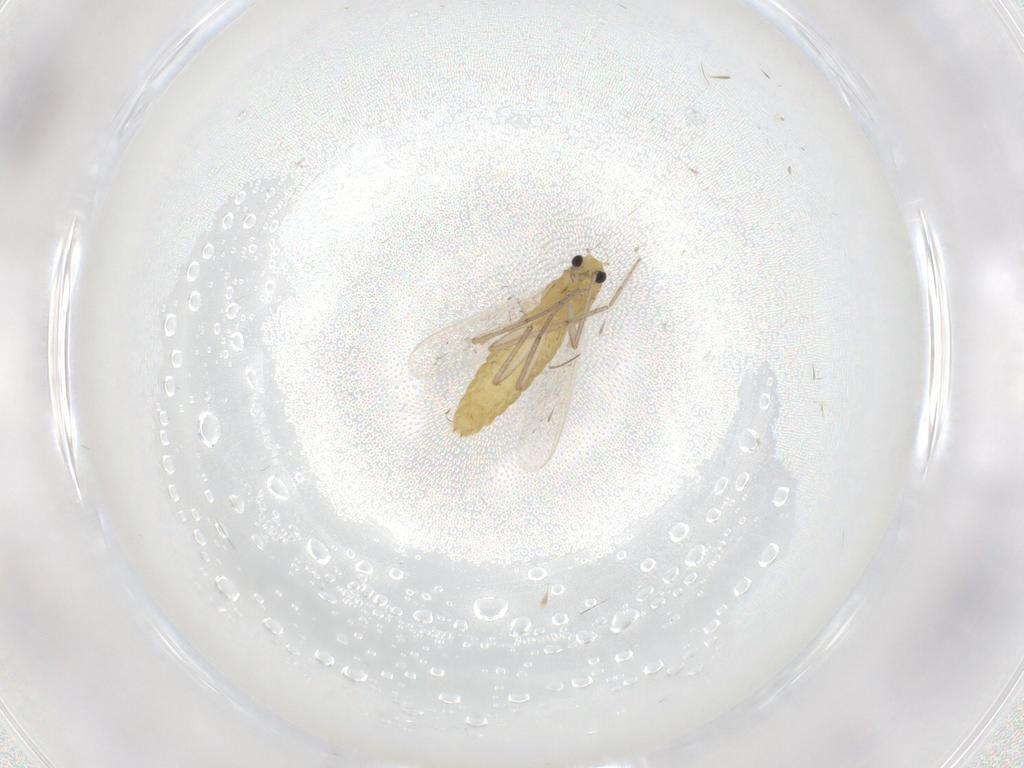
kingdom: Animalia
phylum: Arthropoda
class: Insecta
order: Diptera
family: Chironomidae
